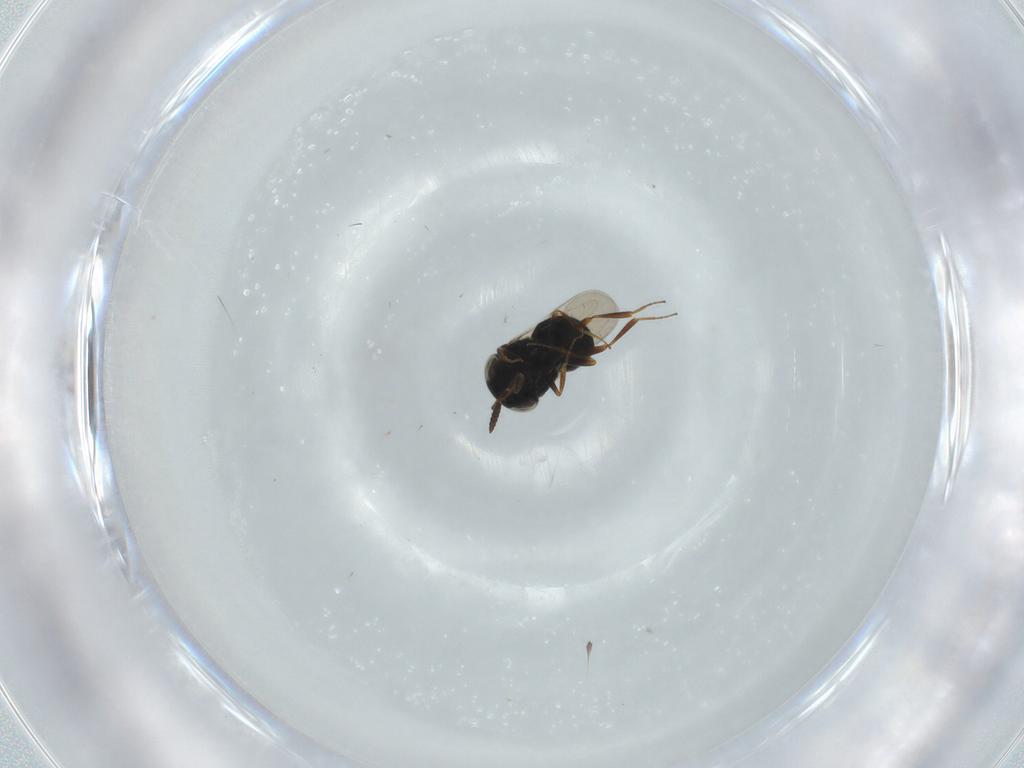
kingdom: Animalia
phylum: Arthropoda
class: Insecta
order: Hymenoptera
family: Scelionidae
